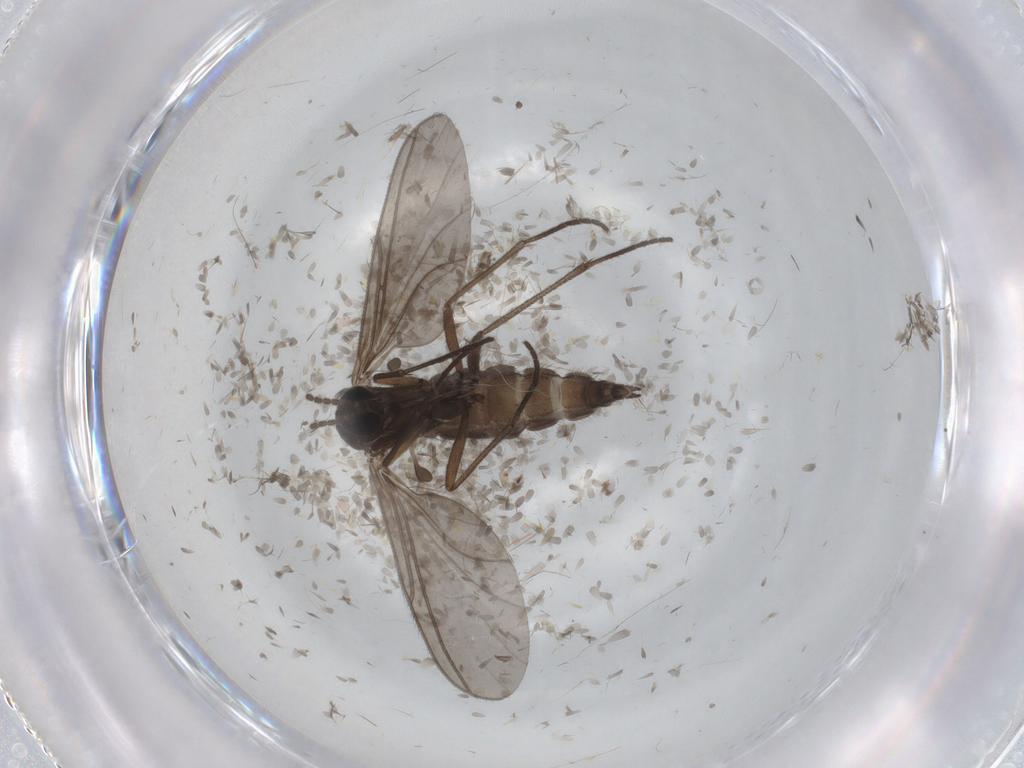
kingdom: Animalia
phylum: Arthropoda
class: Insecta
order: Diptera
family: Sciaridae
